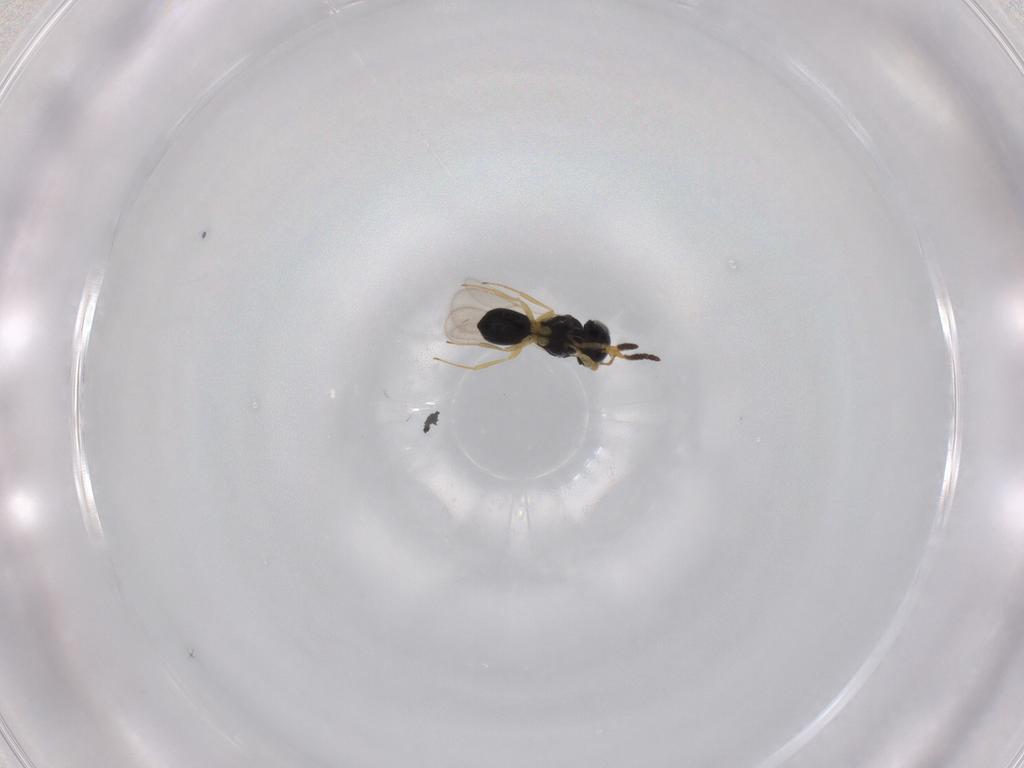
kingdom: Animalia
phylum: Arthropoda
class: Insecta
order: Hymenoptera
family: Scelionidae
